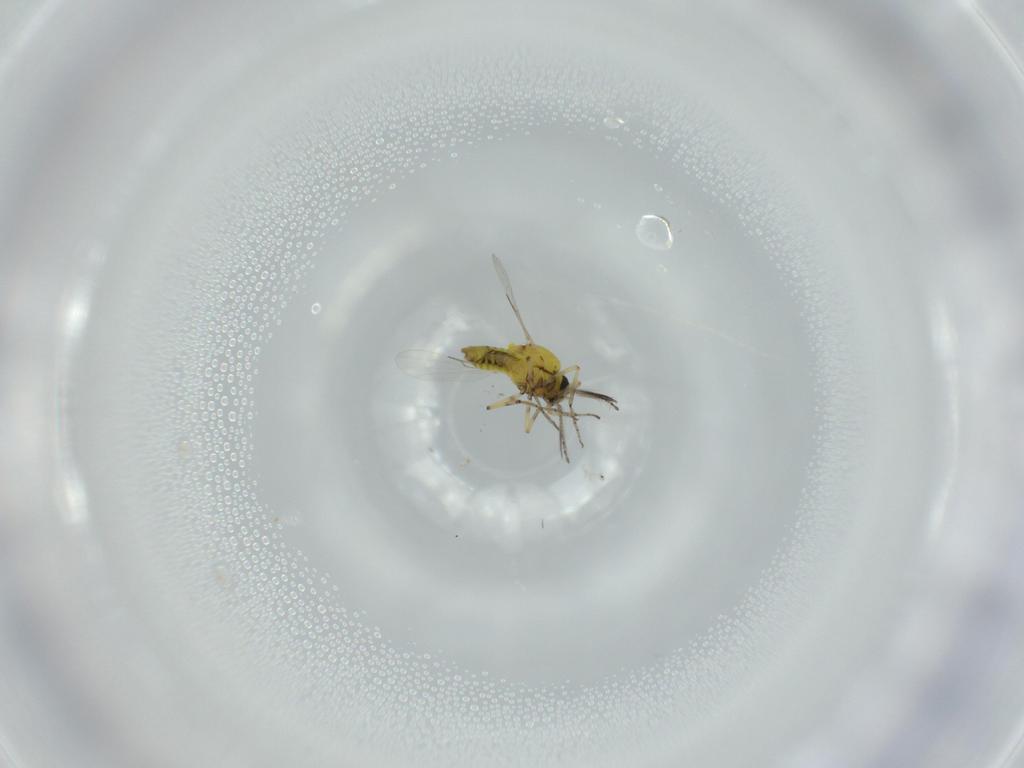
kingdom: Animalia
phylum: Arthropoda
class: Insecta
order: Diptera
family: Ceratopogonidae
